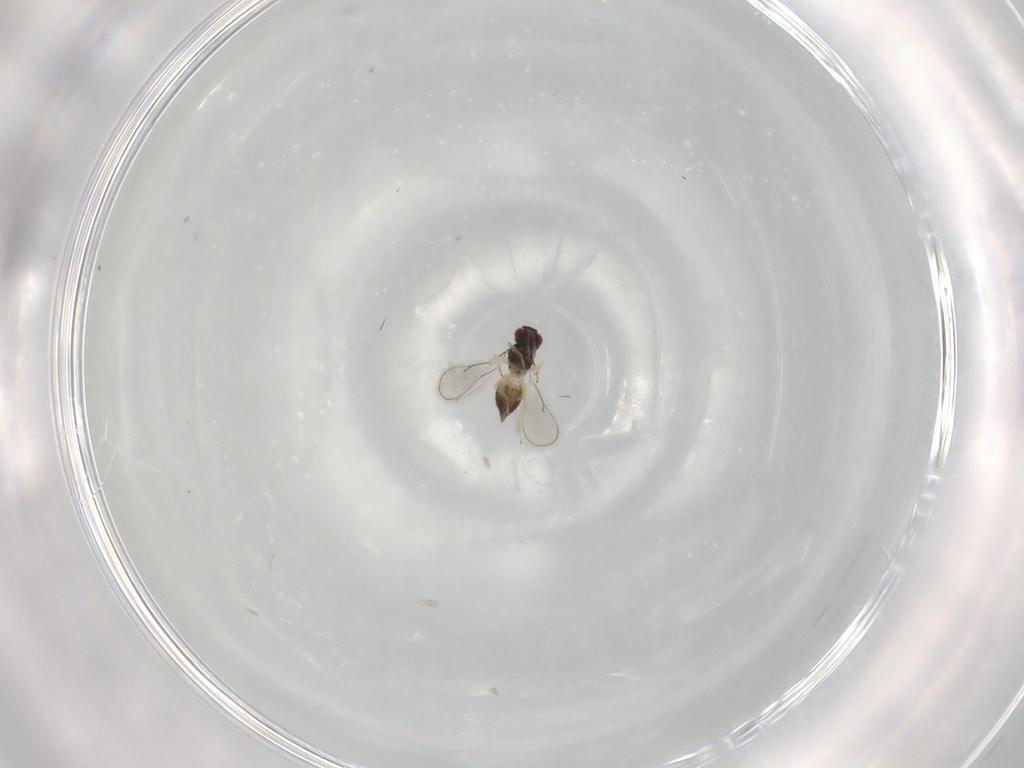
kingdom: Animalia
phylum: Arthropoda
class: Insecta
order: Hymenoptera
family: Eulophidae
